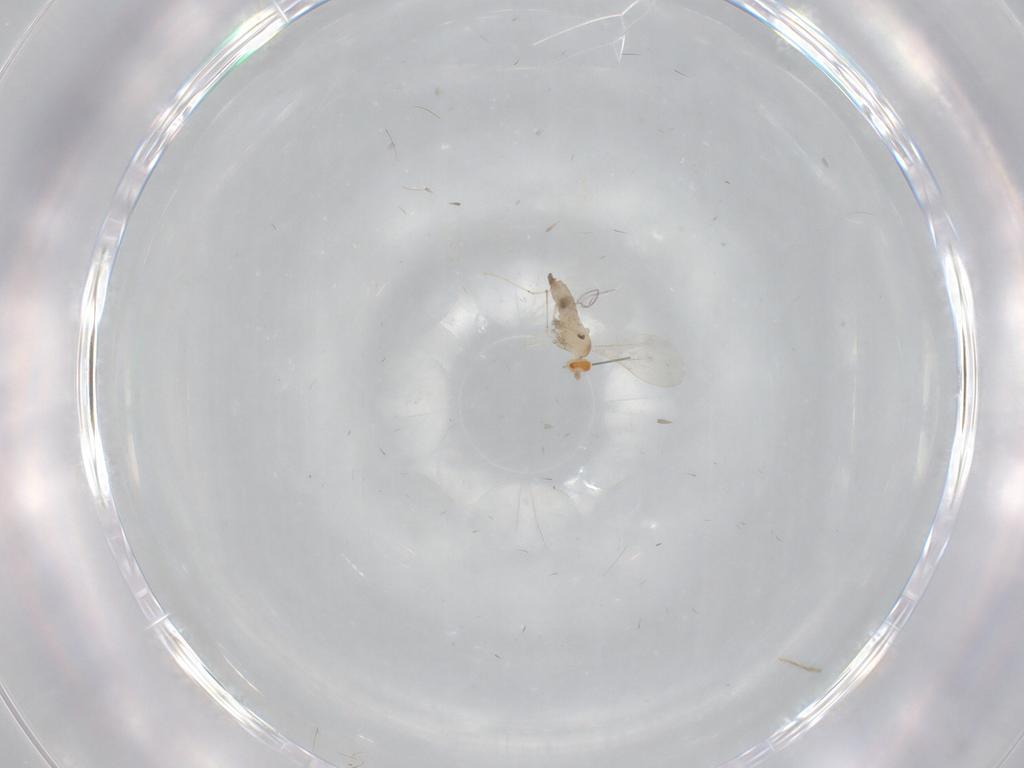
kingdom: Animalia
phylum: Arthropoda
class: Insecta
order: Diptera
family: Cecidomyiidae
